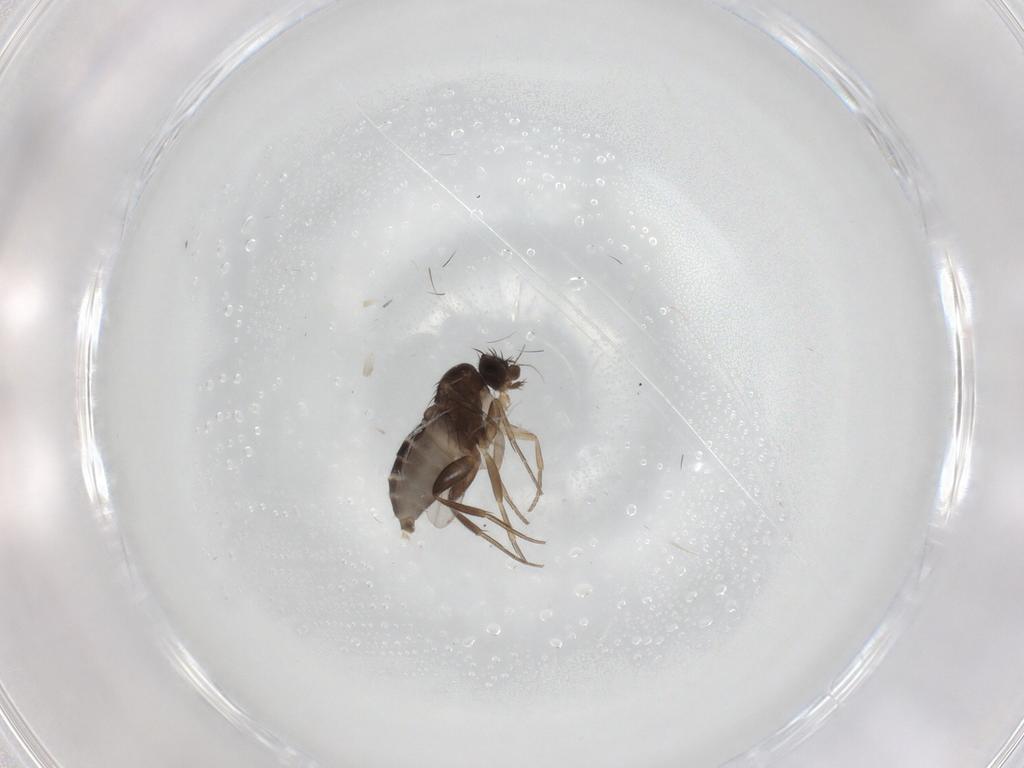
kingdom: Animalia
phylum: Arthropoda
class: Insecta
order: Diptera
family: Phoridae
